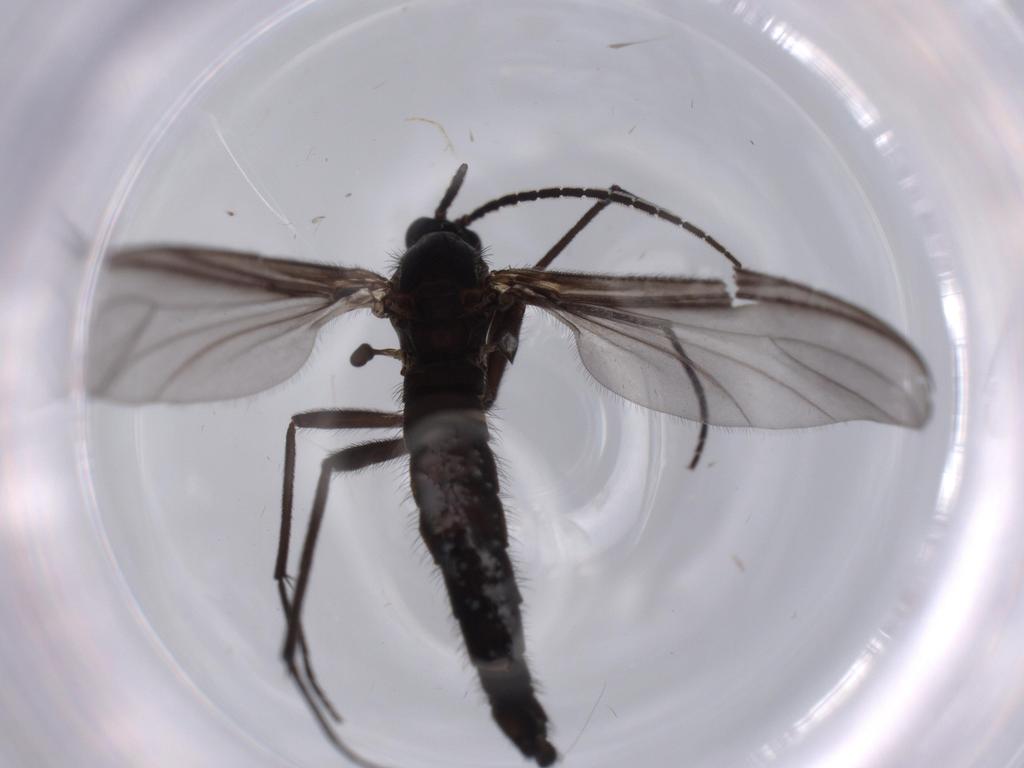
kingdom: Animalia
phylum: Arthropoda
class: Insecta
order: Diptera
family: Cecidomyiidae
